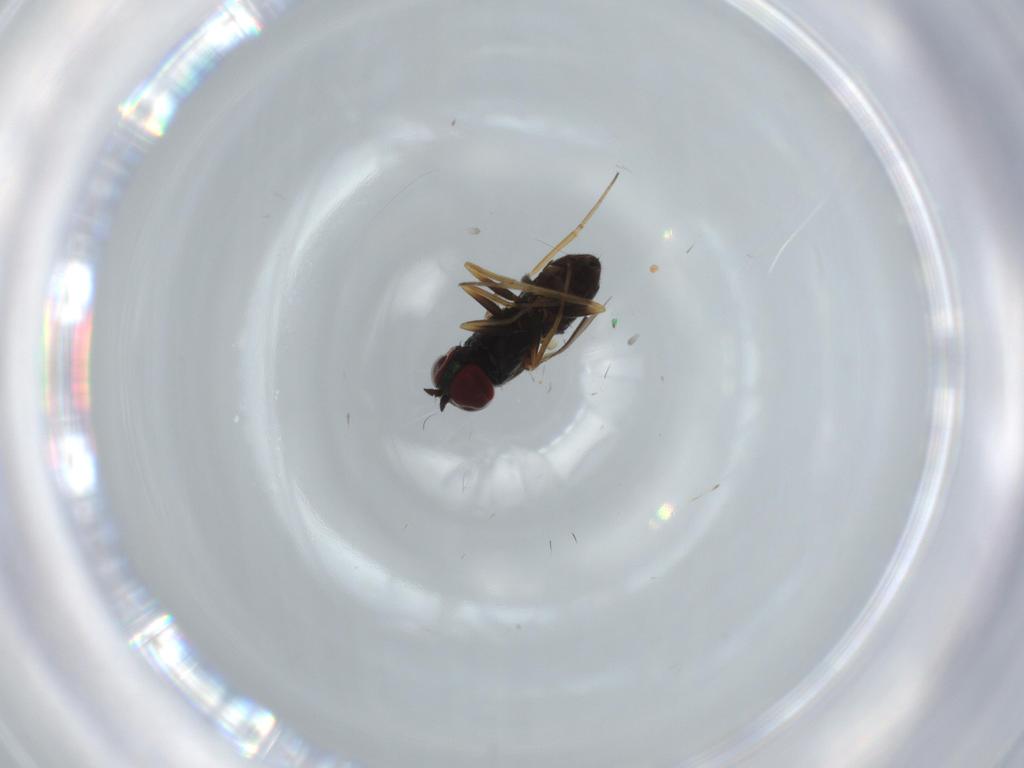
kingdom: Animalia
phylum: Arthropoda
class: Insecta
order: Diptera
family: Dolichopodidae
